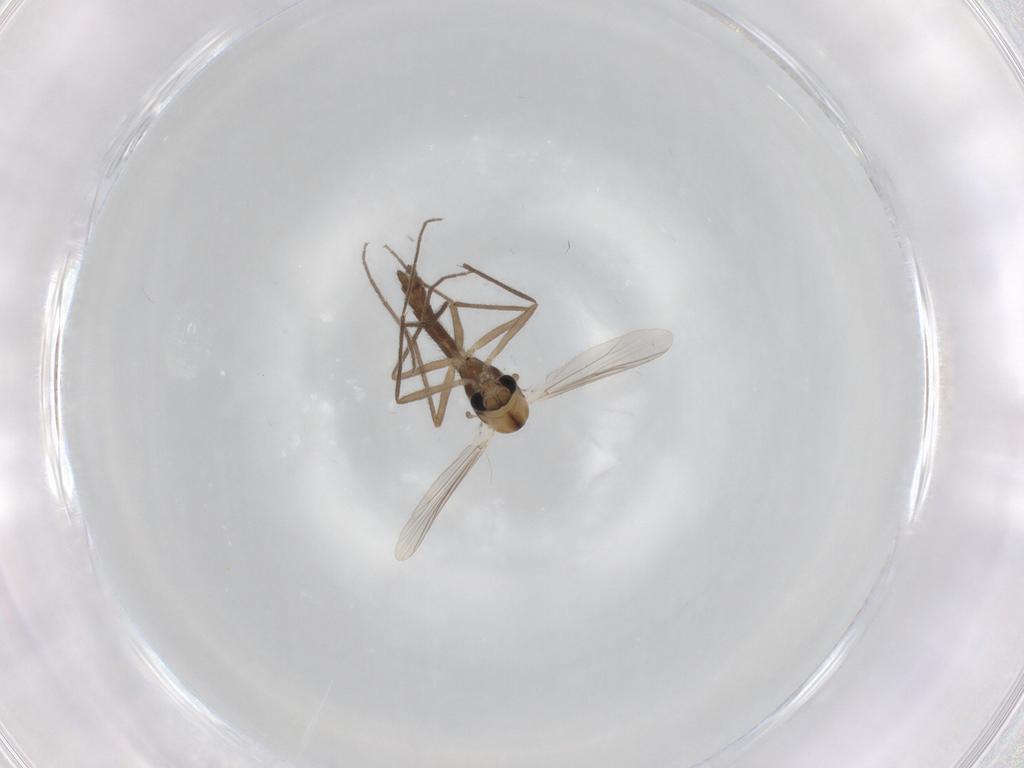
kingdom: Animalia
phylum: Arthropoda
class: Insecta
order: Diptera
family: Chironomidae
